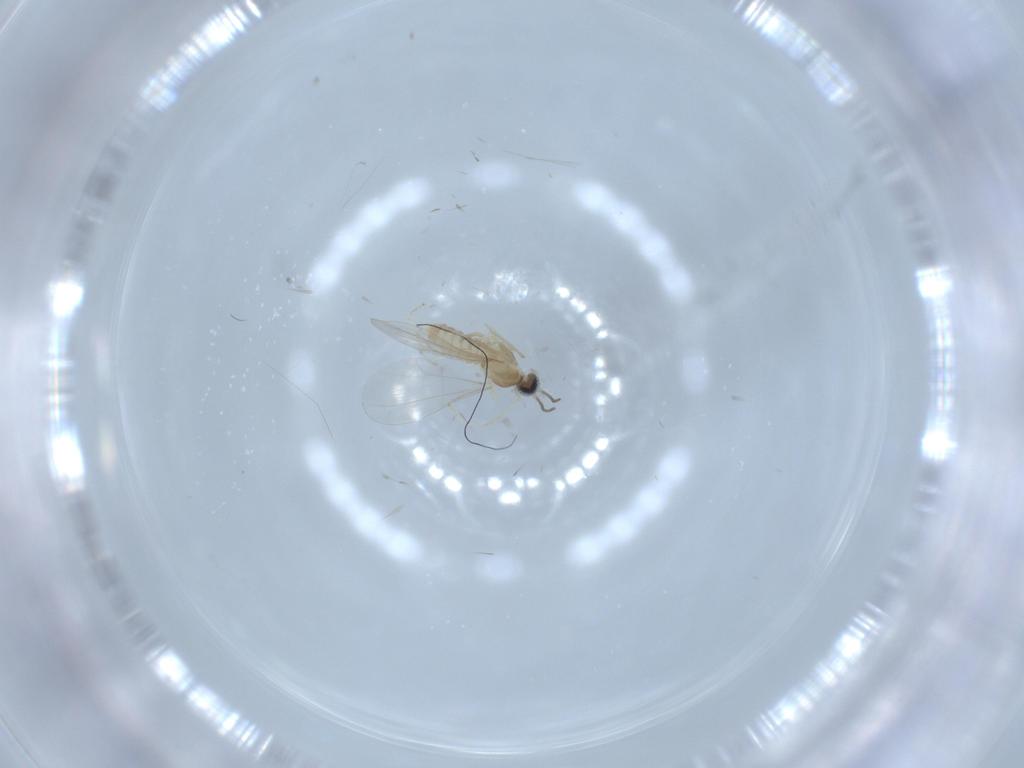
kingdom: Animalia
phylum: Arthropoda
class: Insecta
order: Diptera
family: Cecidomyiidae
